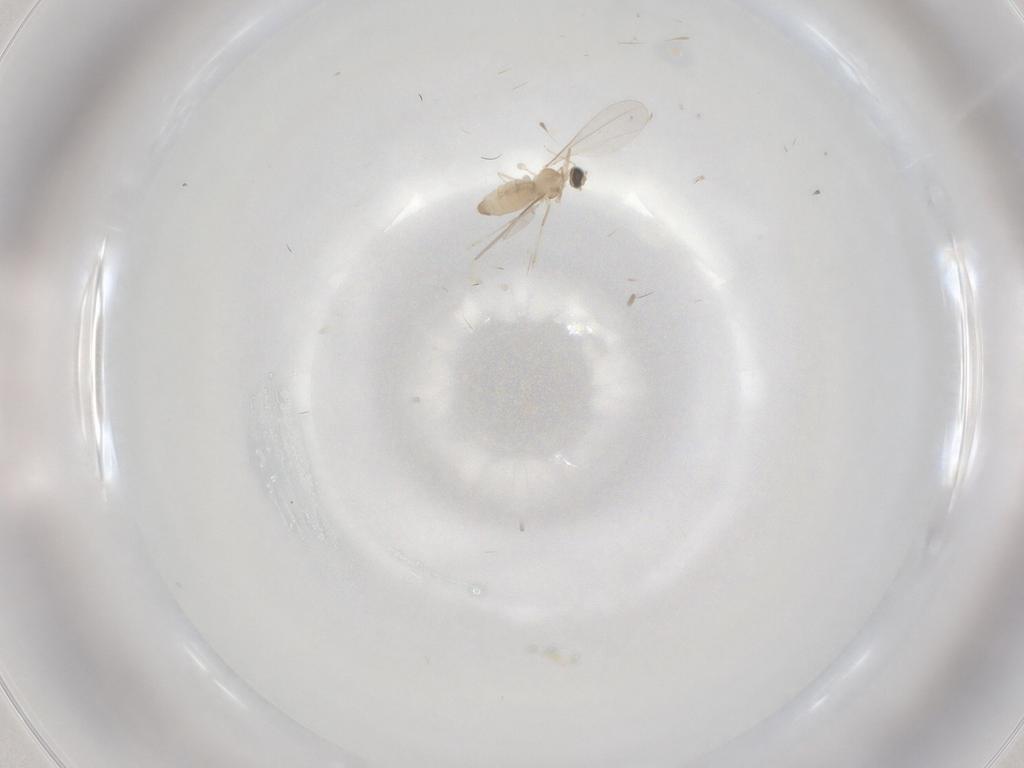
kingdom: Animalia
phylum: Arthropoda
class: Insecta
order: Diptera
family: Cecidomyiidae
